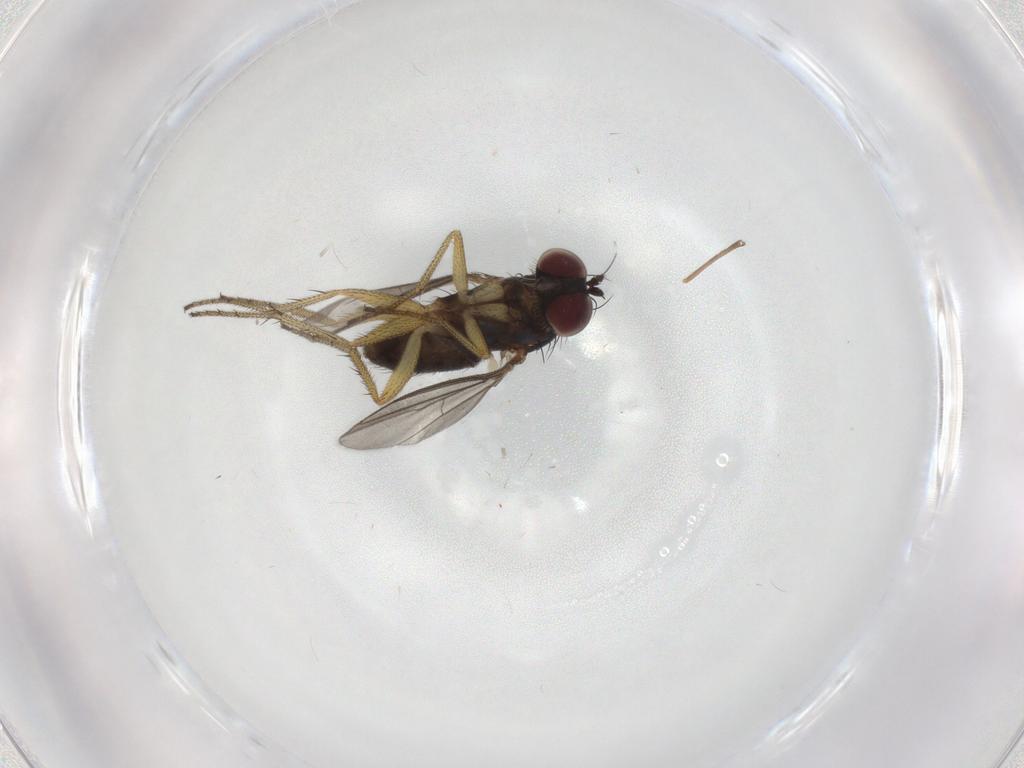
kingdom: Animalia
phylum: Arthropoda
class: Insecta
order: Diptera
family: Dolichopodidae
